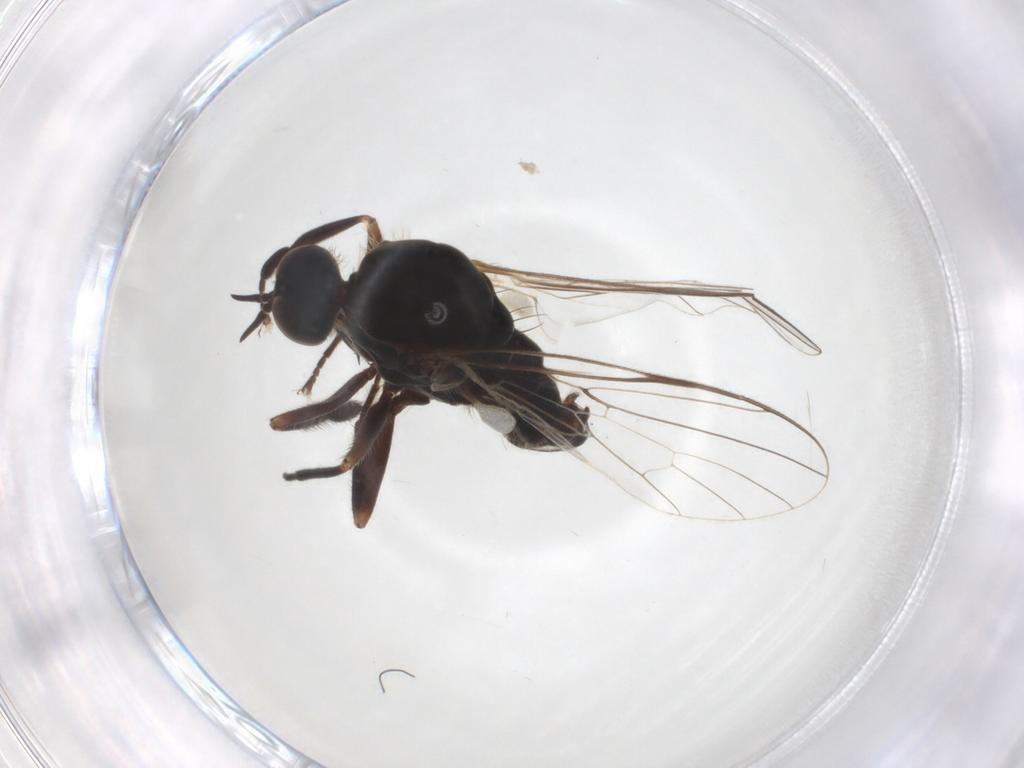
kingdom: Animalia
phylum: Arthropoda
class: Insecta
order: Diptera
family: Empididae
